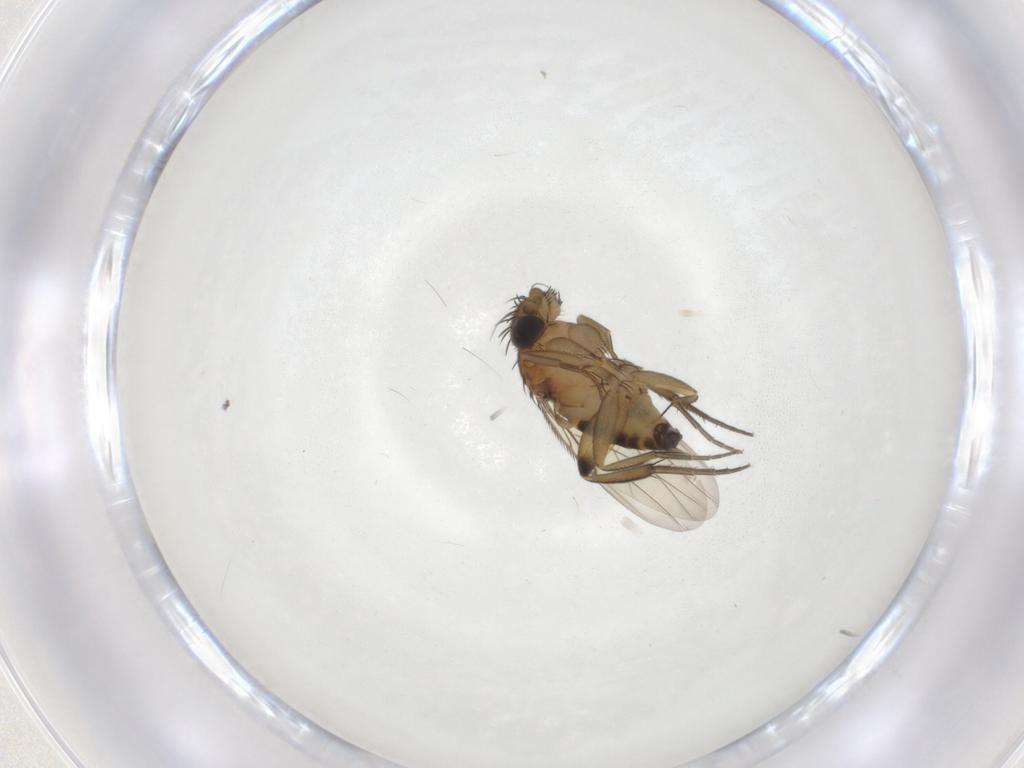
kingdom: Animalia
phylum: Arthropoda
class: Insecta
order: Diptera
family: Phoridae
